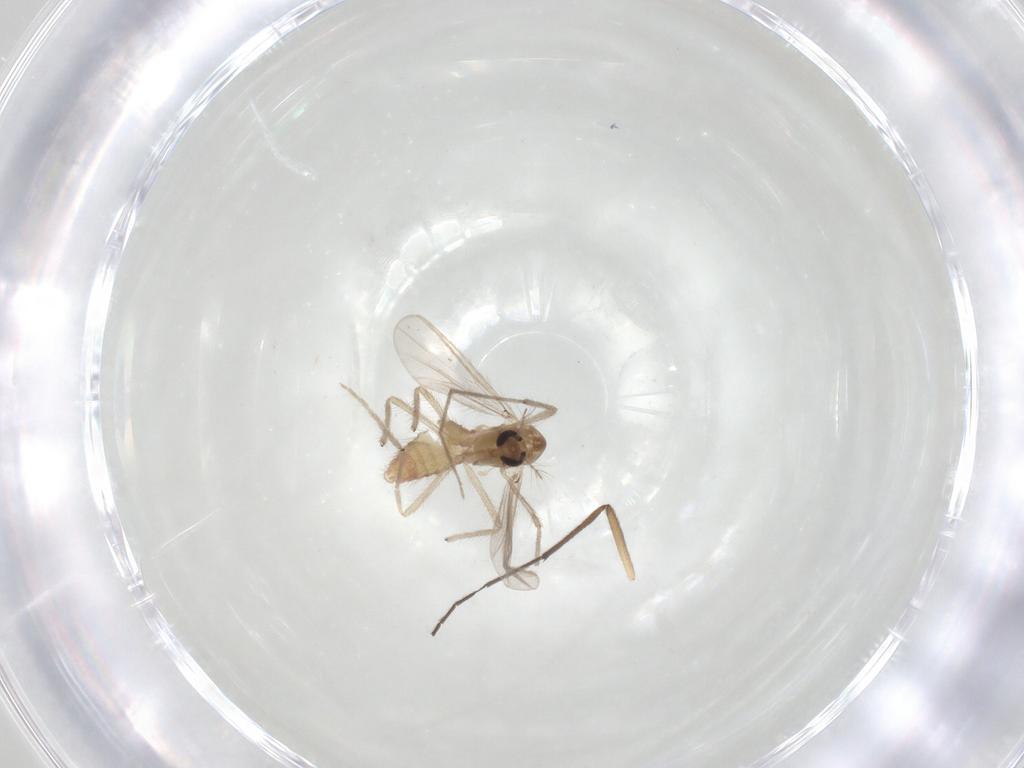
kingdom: Animalia
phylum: Arthropoda
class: Insecta
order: Diptera
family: Chironomidae
